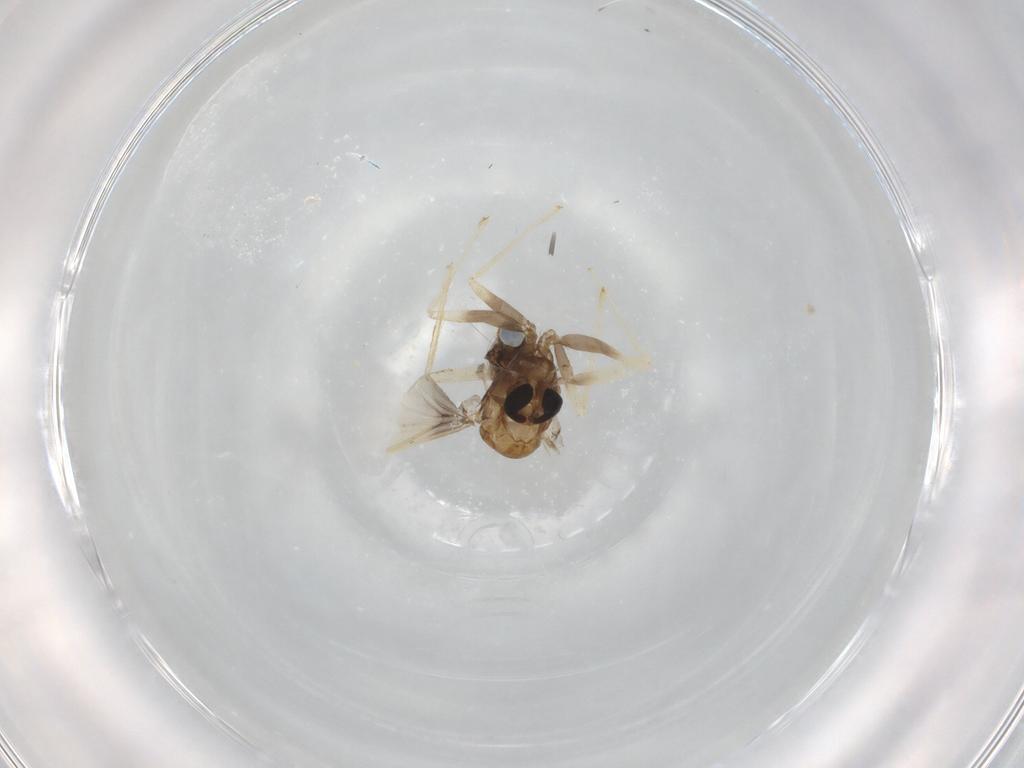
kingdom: Animalia
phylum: Arthropoda
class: Insecta
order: Diptera
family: Chironomidae
